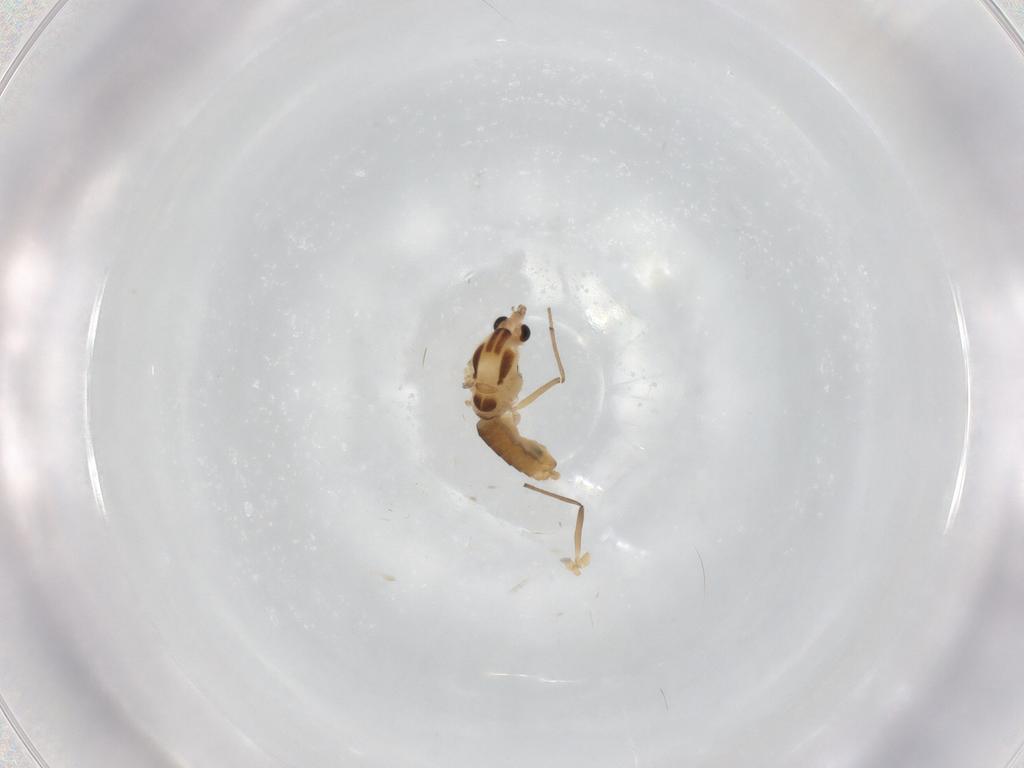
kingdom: Animalia
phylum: Arthropoda
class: Insecta
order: Diptera
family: Chironomidae
